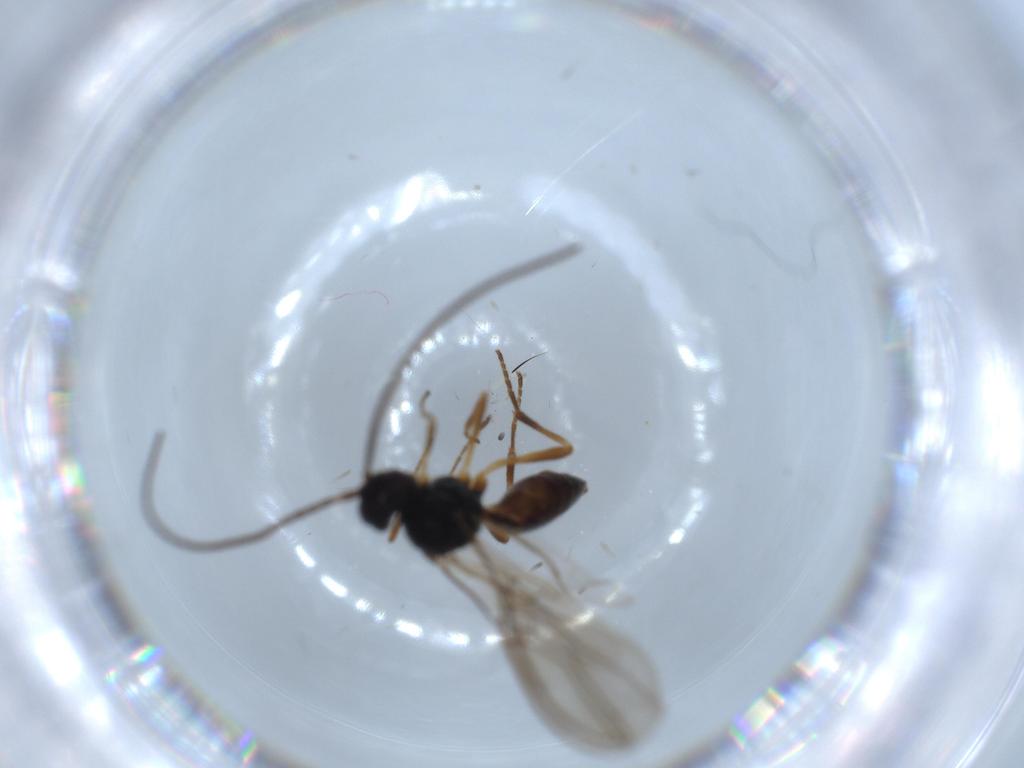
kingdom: Animalia
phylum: Arthropoda
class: Insecta
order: Hymenoptera
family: Braconidae
